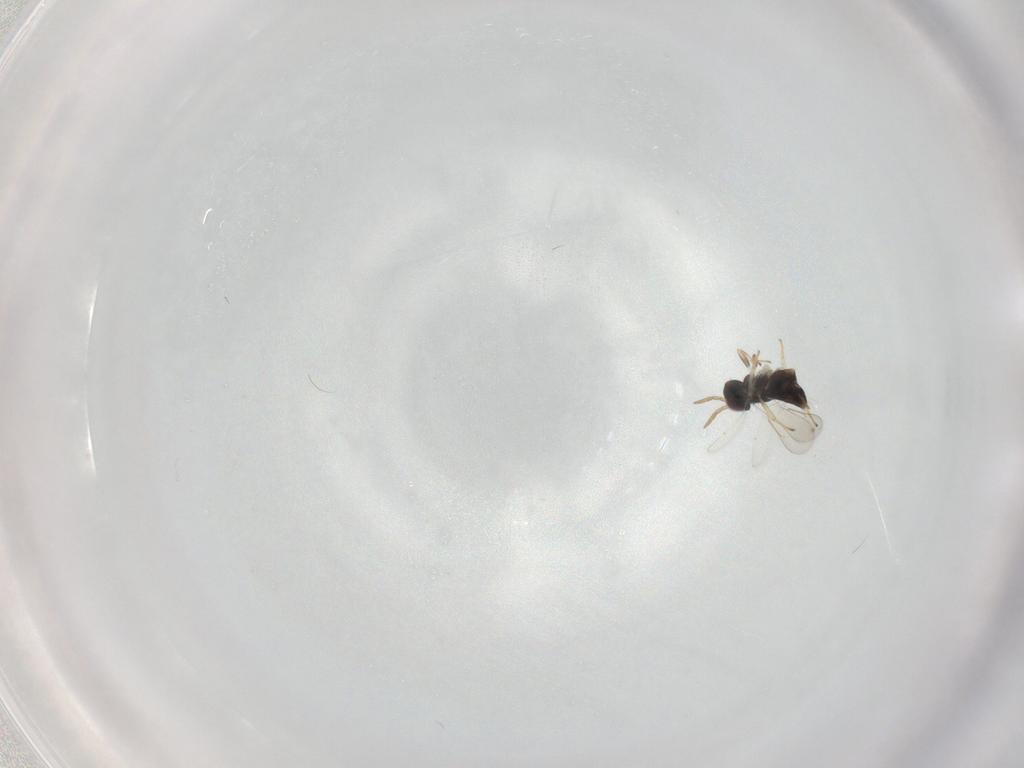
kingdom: Animalia
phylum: Arthropoda
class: Insecta
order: Hymenoptera
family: Aphelinidae
